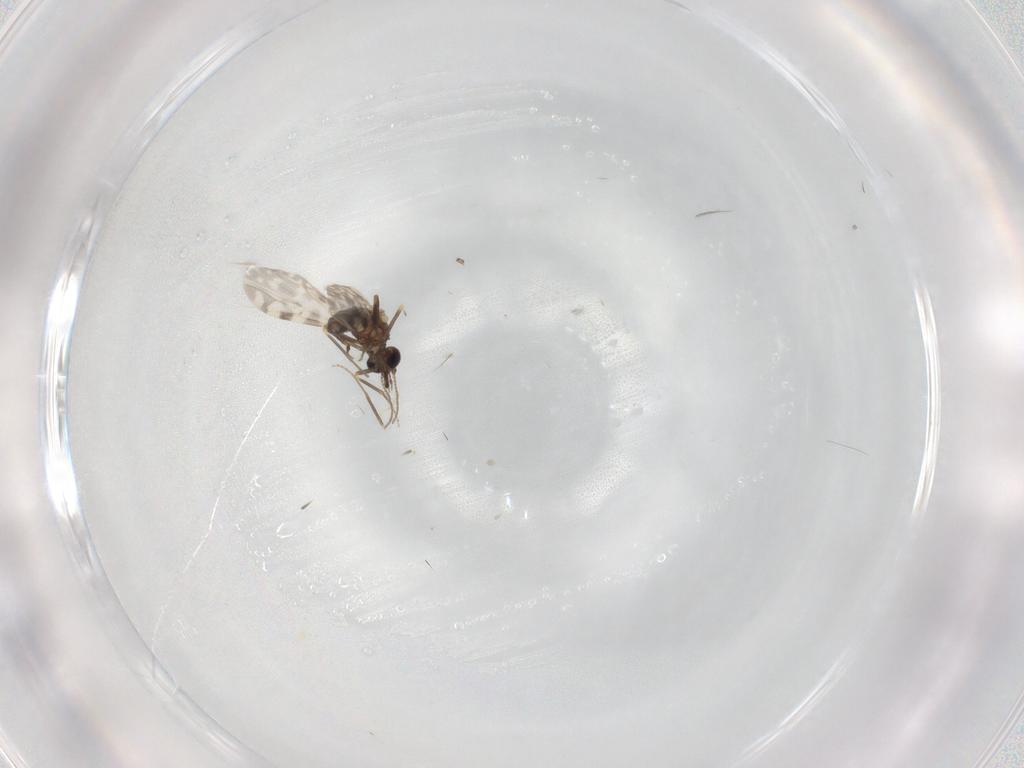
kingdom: Animalia
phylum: Arthropoda
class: Insecta
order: Diptera
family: Ceratopogonidae
